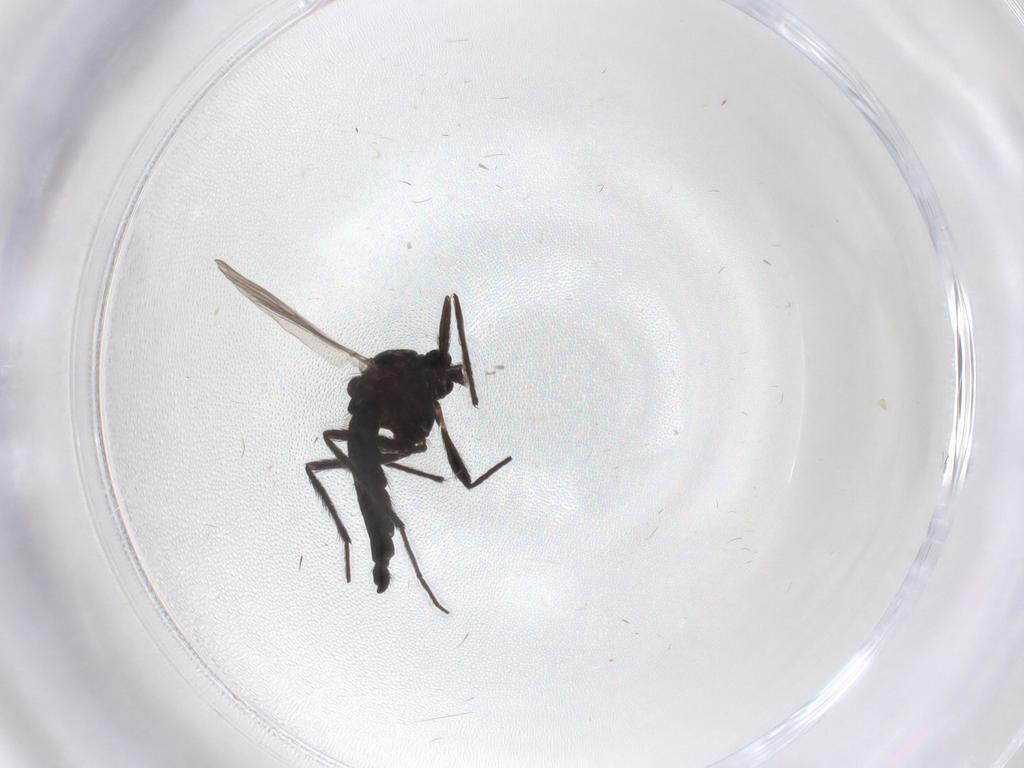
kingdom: Animalia
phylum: Arthropoda
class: Insecta
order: Diptera
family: Chironomidae
